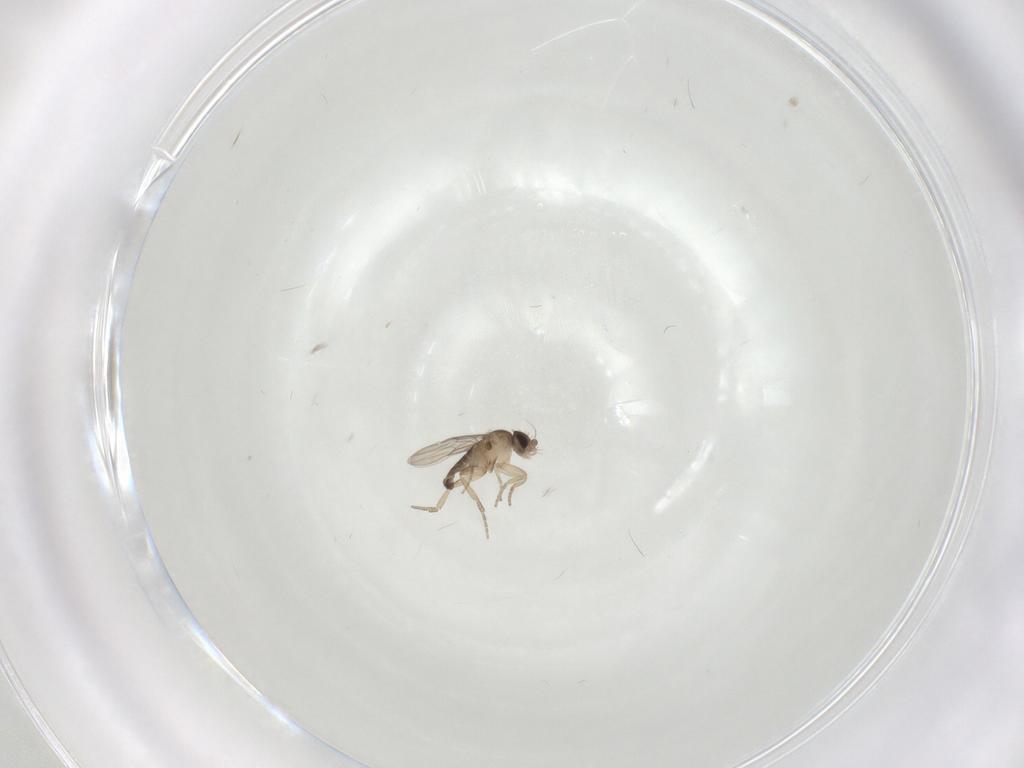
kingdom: Animalia
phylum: Arthropoda
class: Insecta
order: Diptera
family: Phoridae
